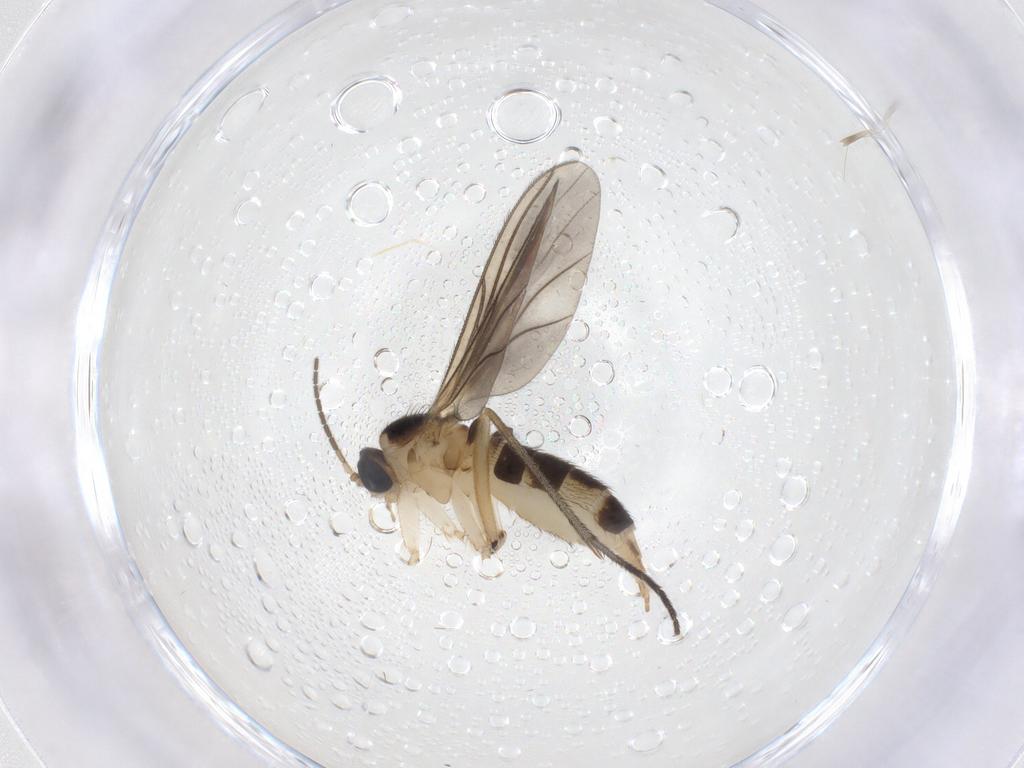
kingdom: Animalia
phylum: Arthropoda
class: Insecta
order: Diptera
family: Sciaridae
